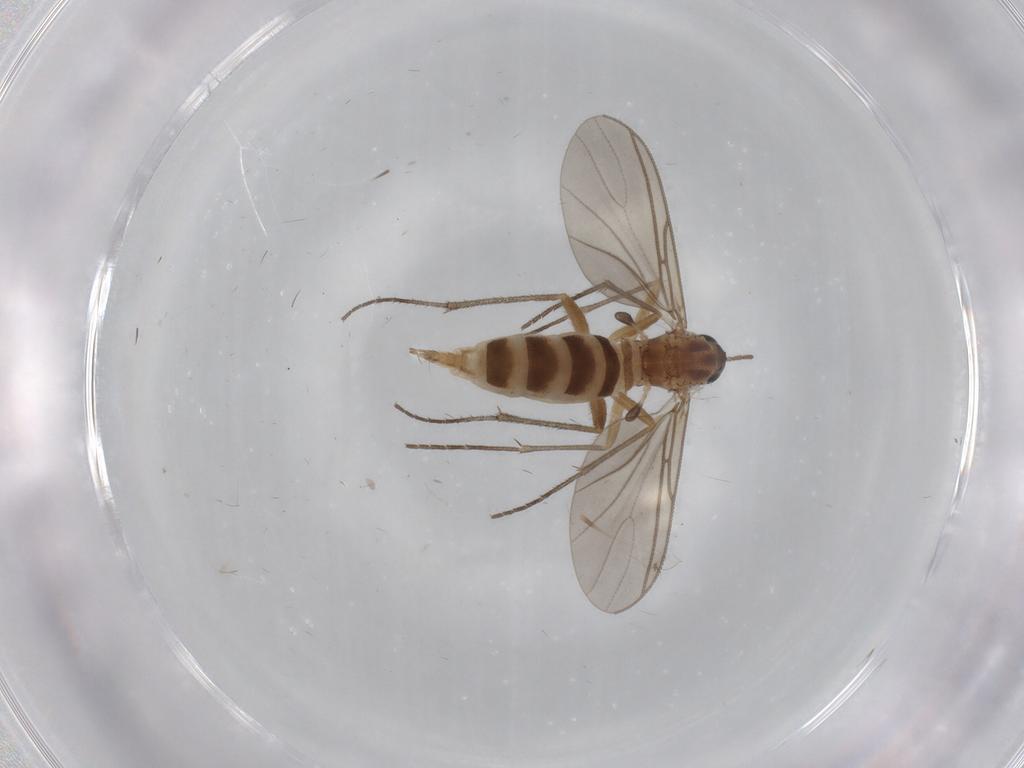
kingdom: Animalia
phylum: Arthropoda
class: Insecta
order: Diptera
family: Sciaridae
